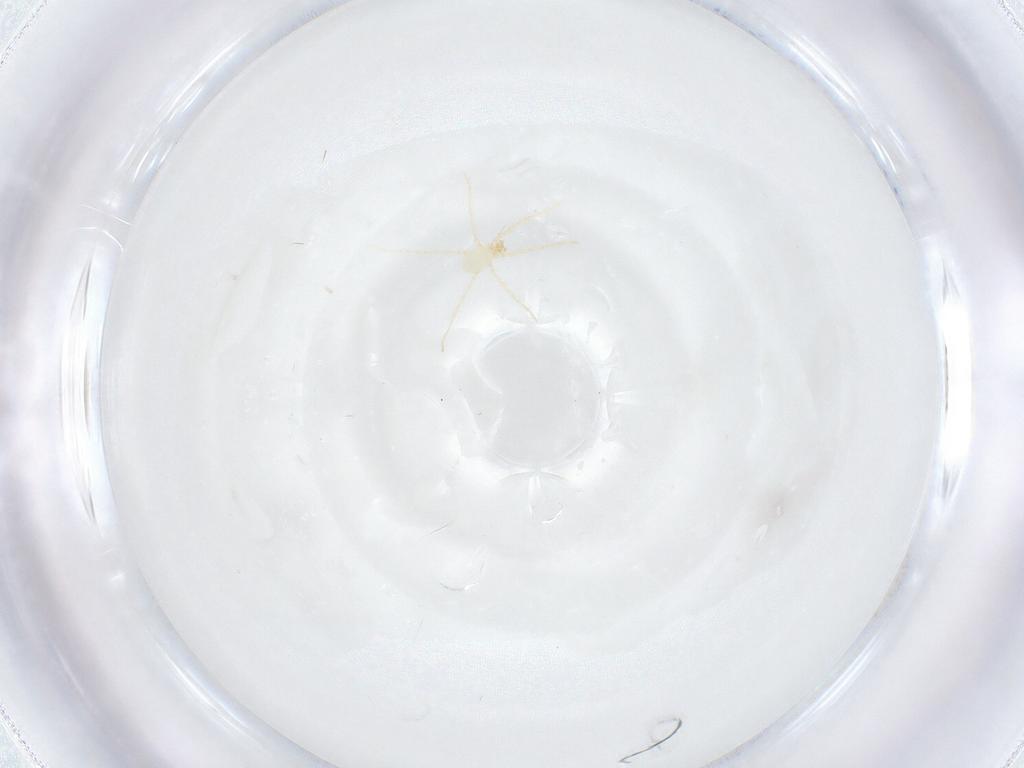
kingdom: Animalia
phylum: Arthropoda
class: Arachnida
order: Trombidiformes
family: Erythraeidae
